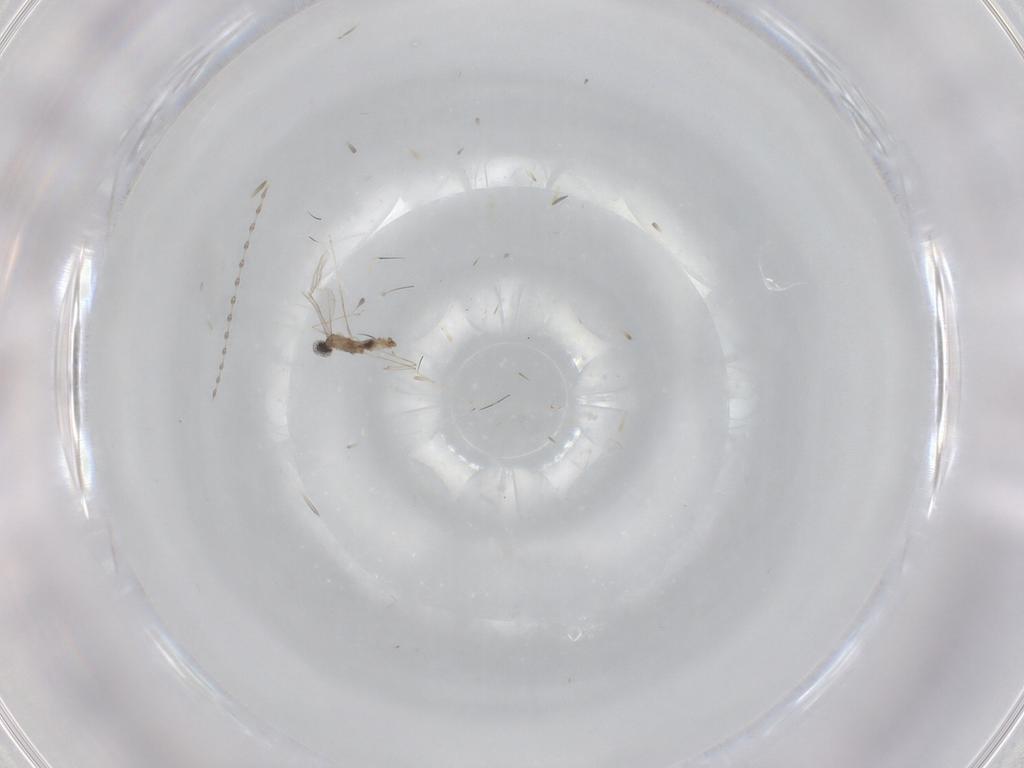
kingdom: Animalia
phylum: Arthropoda
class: Insecta
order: Diptera
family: Cecidomyiidae
